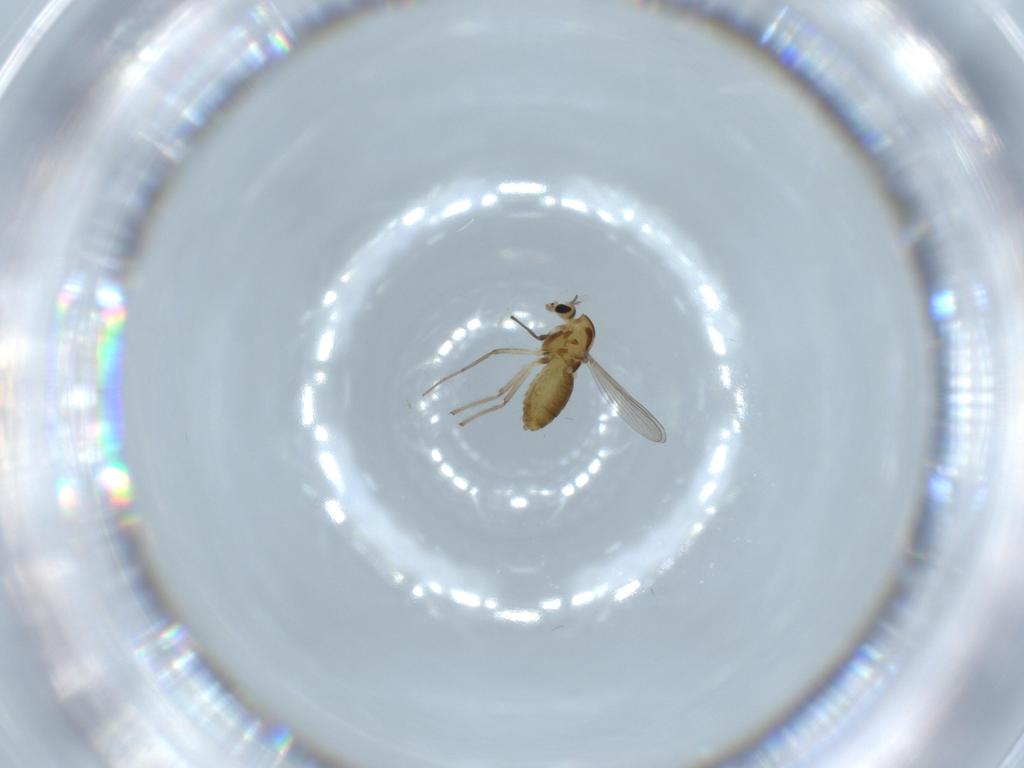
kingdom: Animalia
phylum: Arthropoda
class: Insecta
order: Diptera
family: Chironomidae
